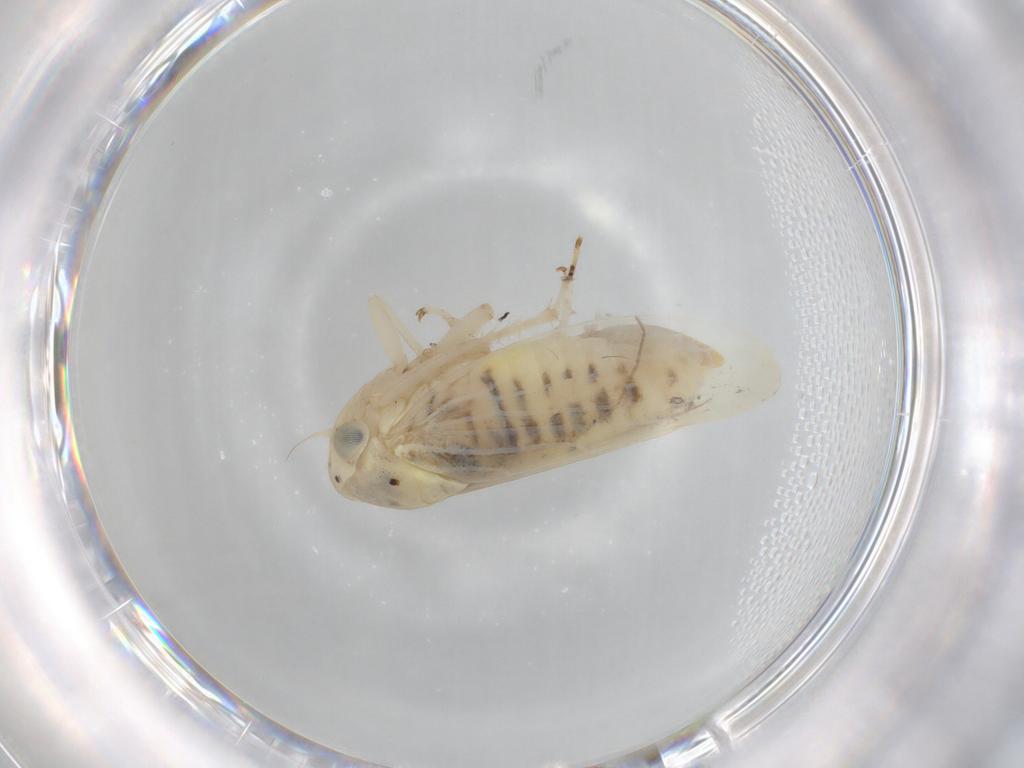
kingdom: Animalia
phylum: Arthropoda
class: Insecta
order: Hemiptera
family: Cicadellidae
